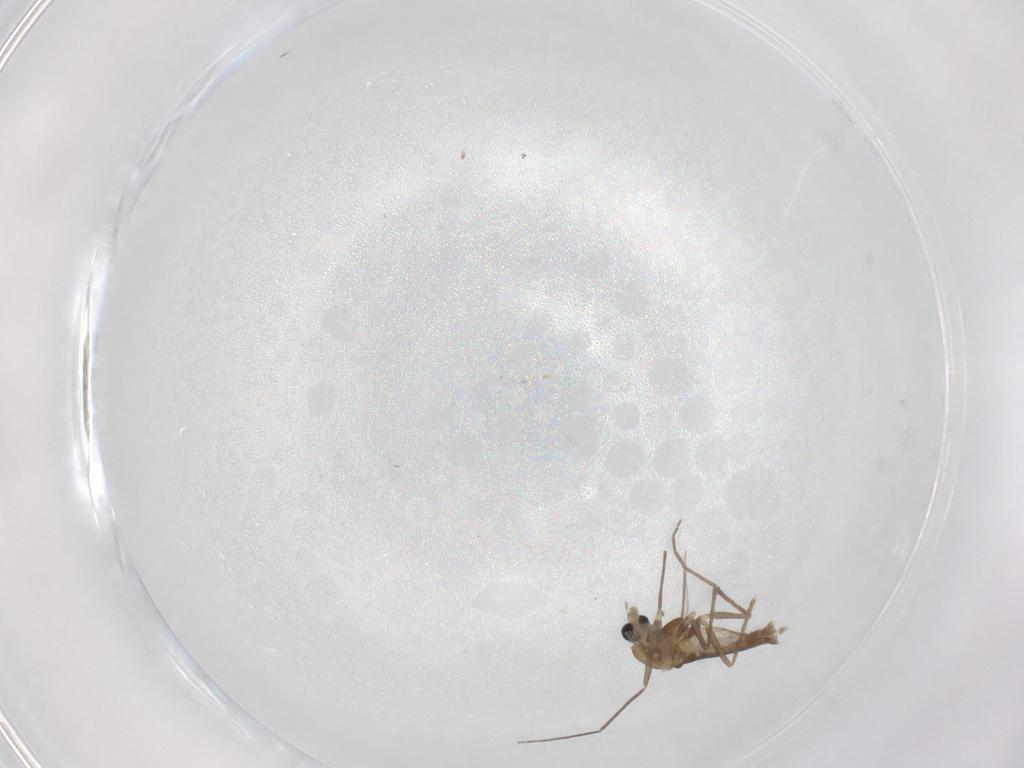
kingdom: Animalia
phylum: Arthropoda
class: Insecta
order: Diptera
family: Chironomidae
